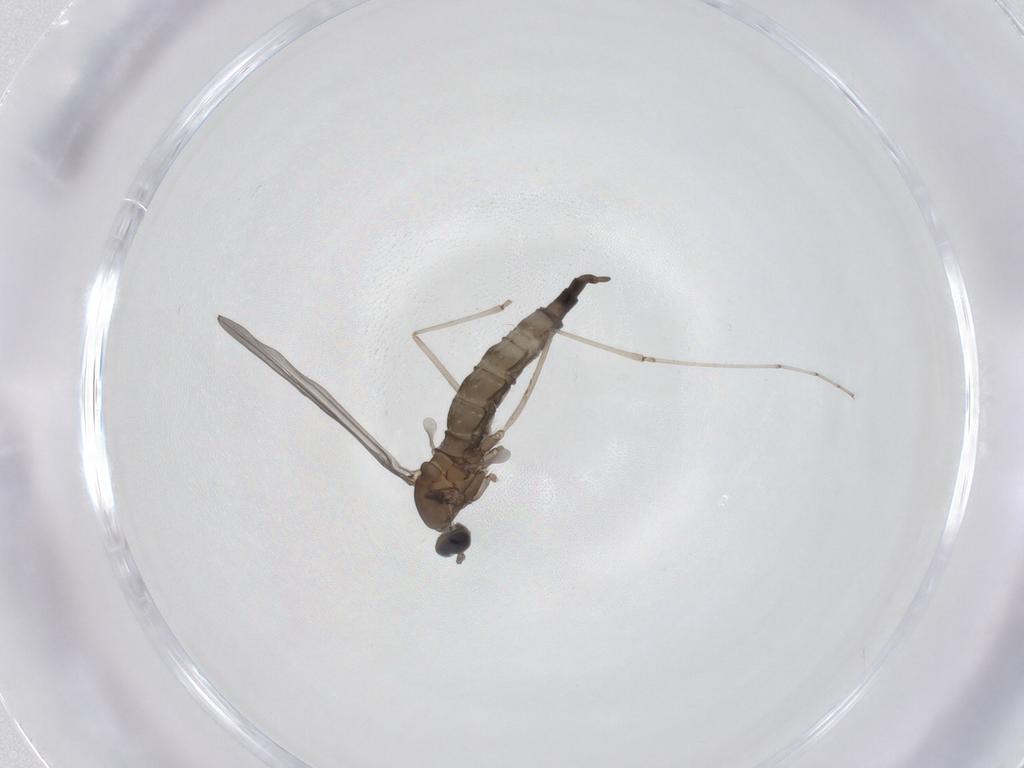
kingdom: Animalia
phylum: Arthropoda
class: Insecta
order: Diptera
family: Cecidomyiidae
